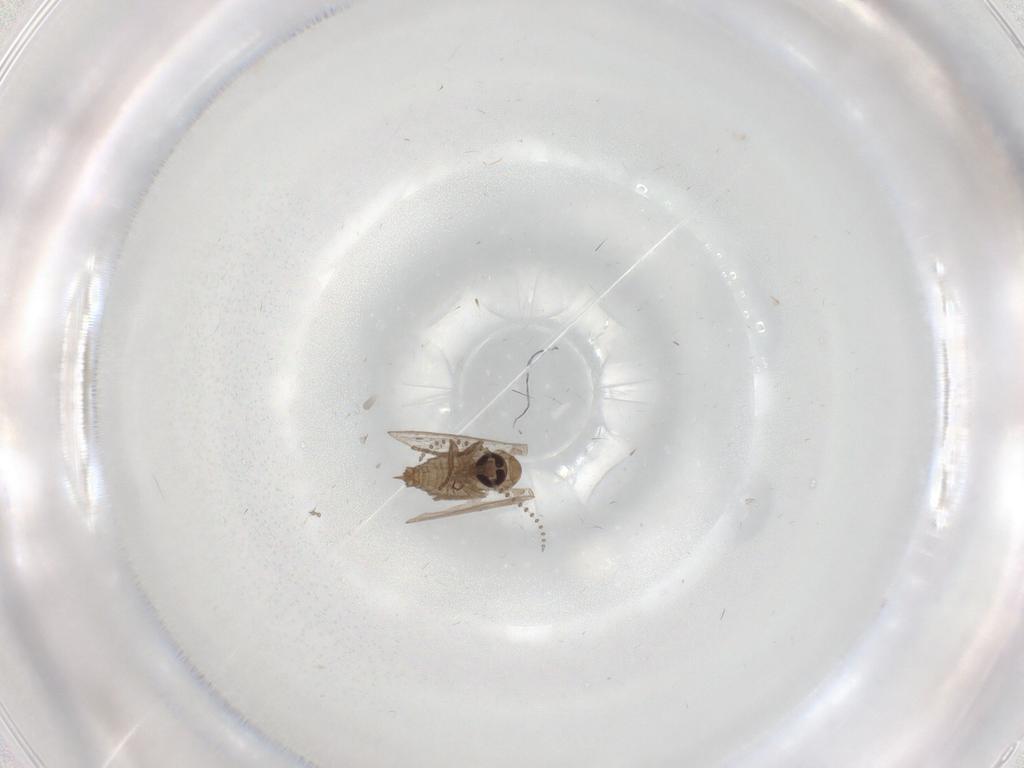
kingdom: Animalia
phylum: Arthropoda
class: Insecta
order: Diptera
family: Psychodidae
